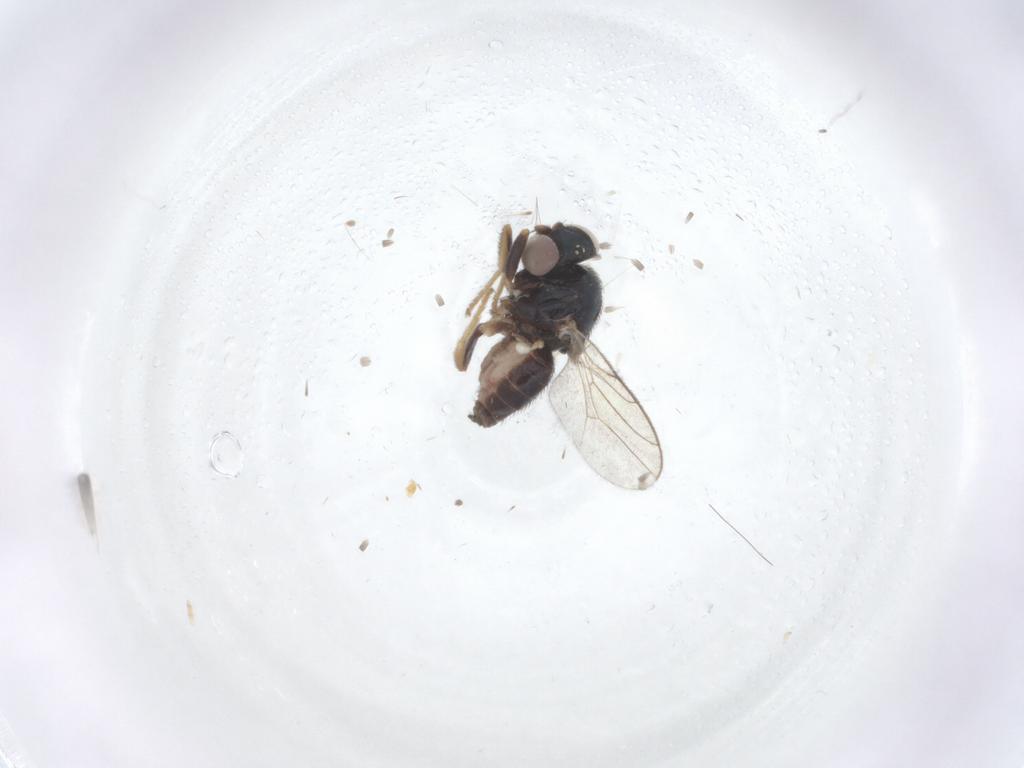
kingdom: Animalia
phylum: Arthropoda
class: Insecta
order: Diptera
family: Chloropidae
